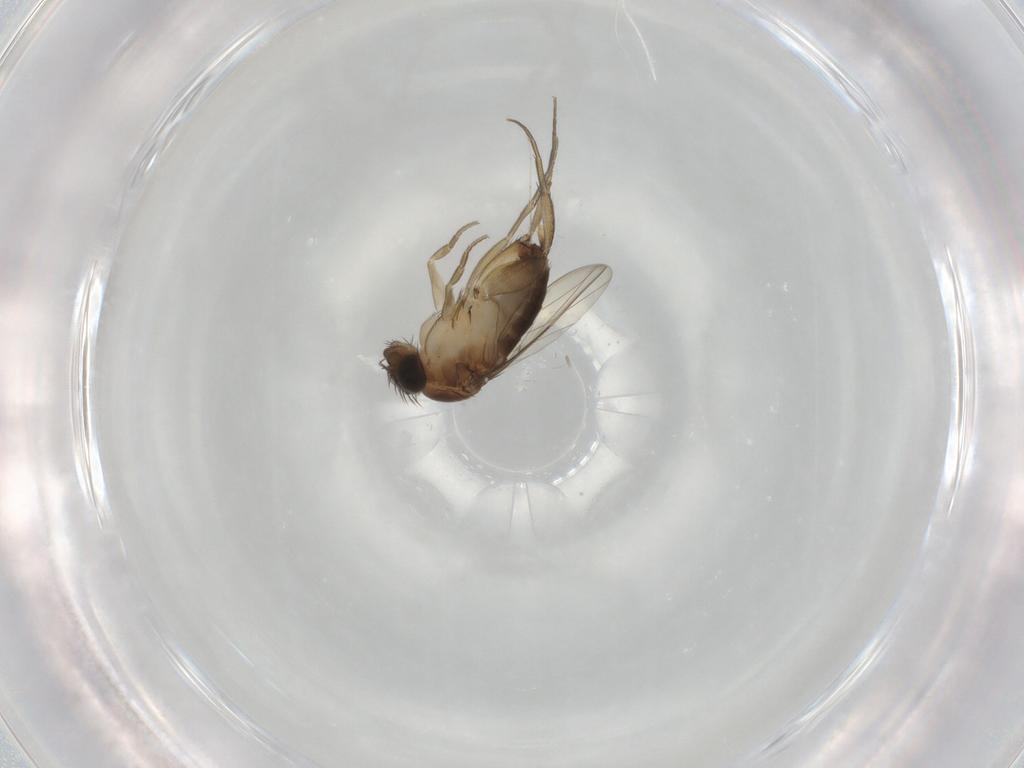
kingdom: Animalia
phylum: Arthropoda
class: Insecta
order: Diptera
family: Phoridae
